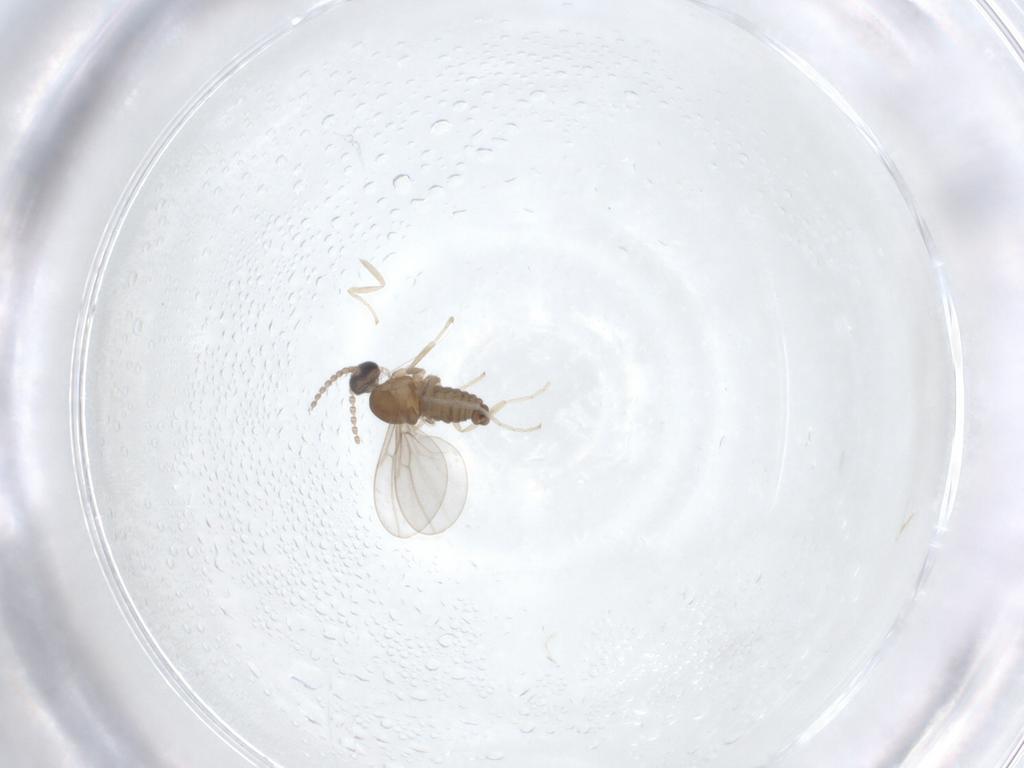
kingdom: Animalia
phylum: Arthropoda
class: Insecta
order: Diptera
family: Cecidomyiidae
